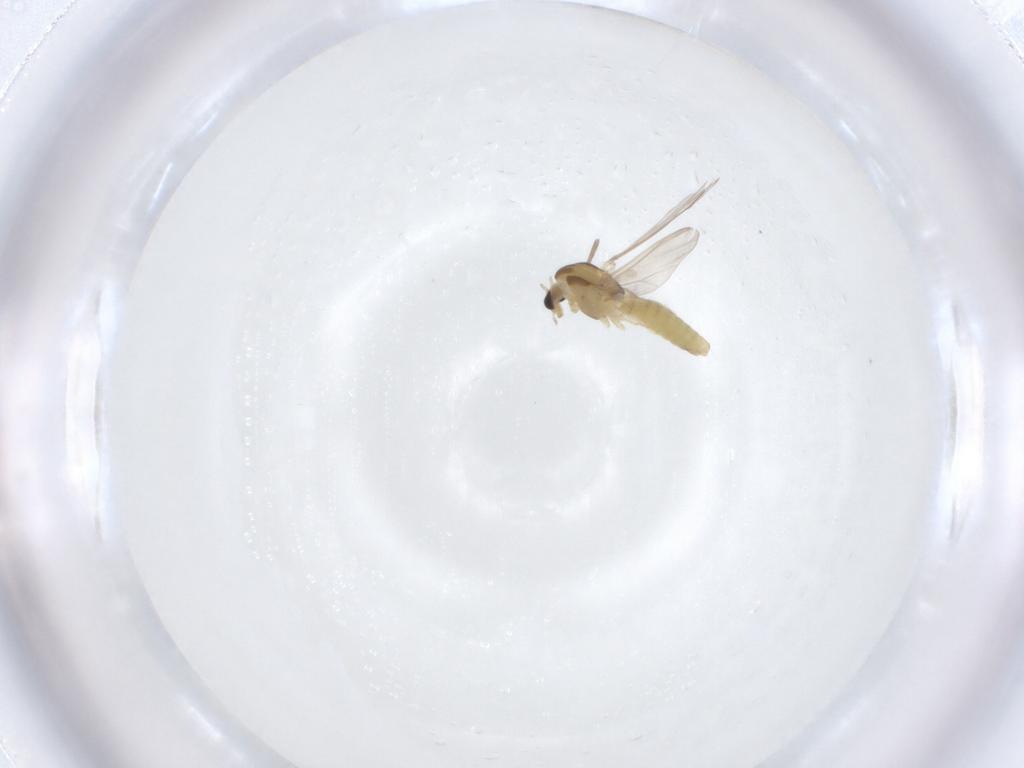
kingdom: Animalia
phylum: Arthropoda
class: Insecta
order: Diptera
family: Chironomidae
